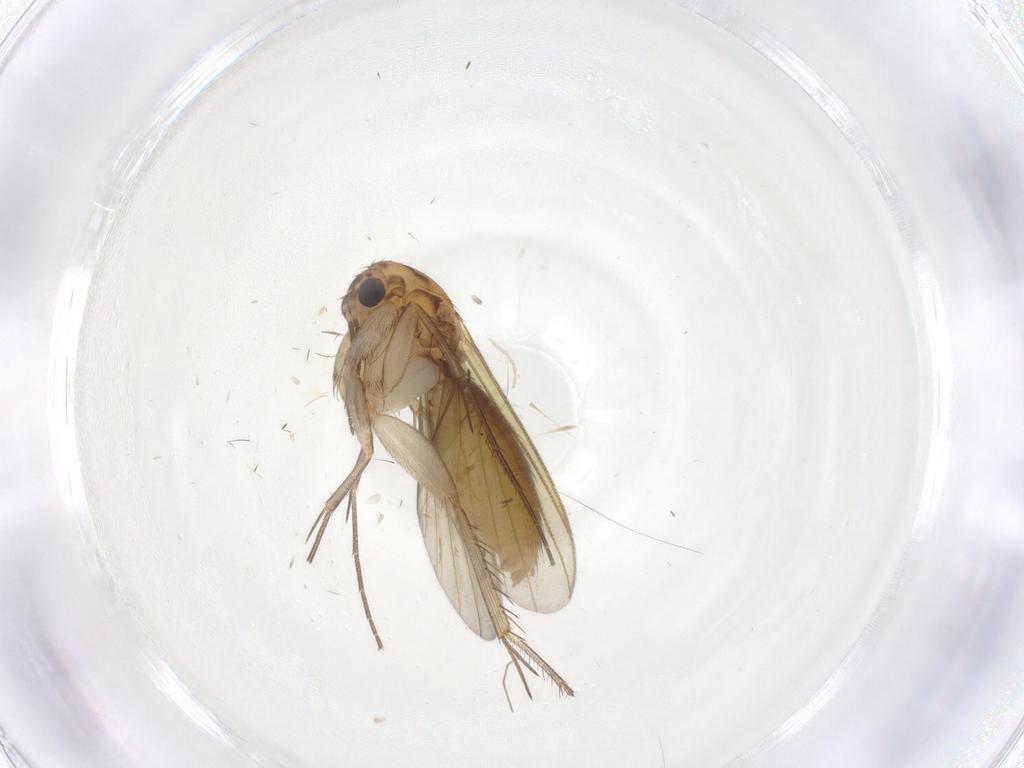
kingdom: Animalia
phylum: Arthropoda
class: Insecta
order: Diptera
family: Mycetophilidae
